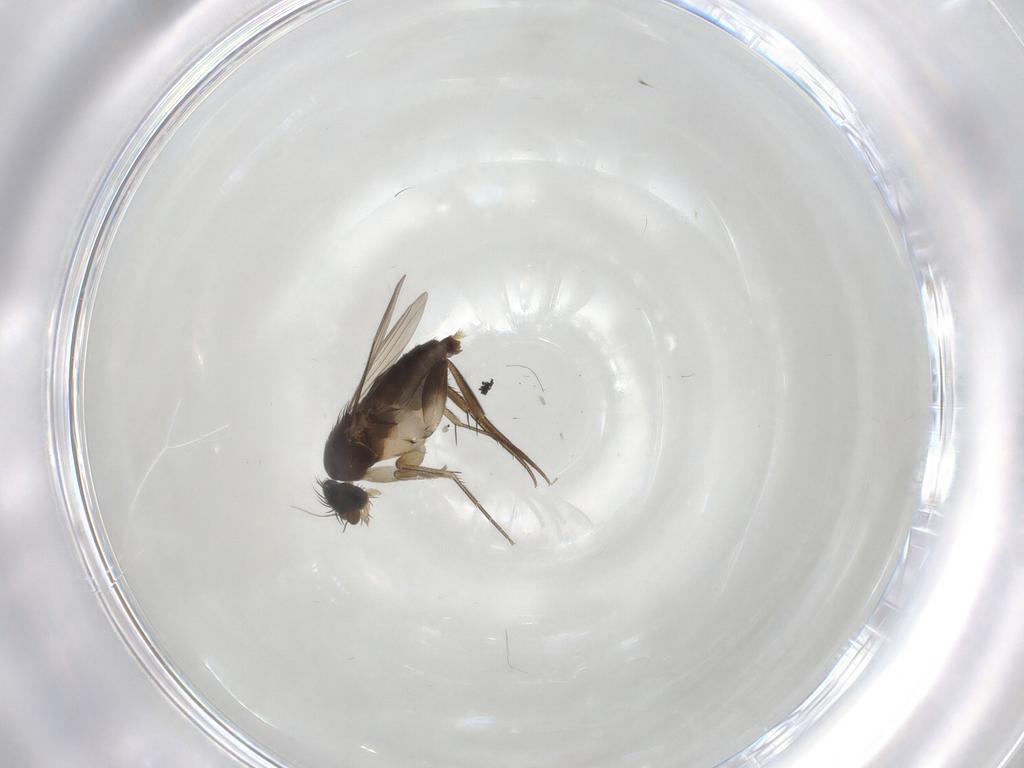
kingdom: Animalia
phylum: Arthropoda
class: Insecta
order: Diptera
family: Phoridae
